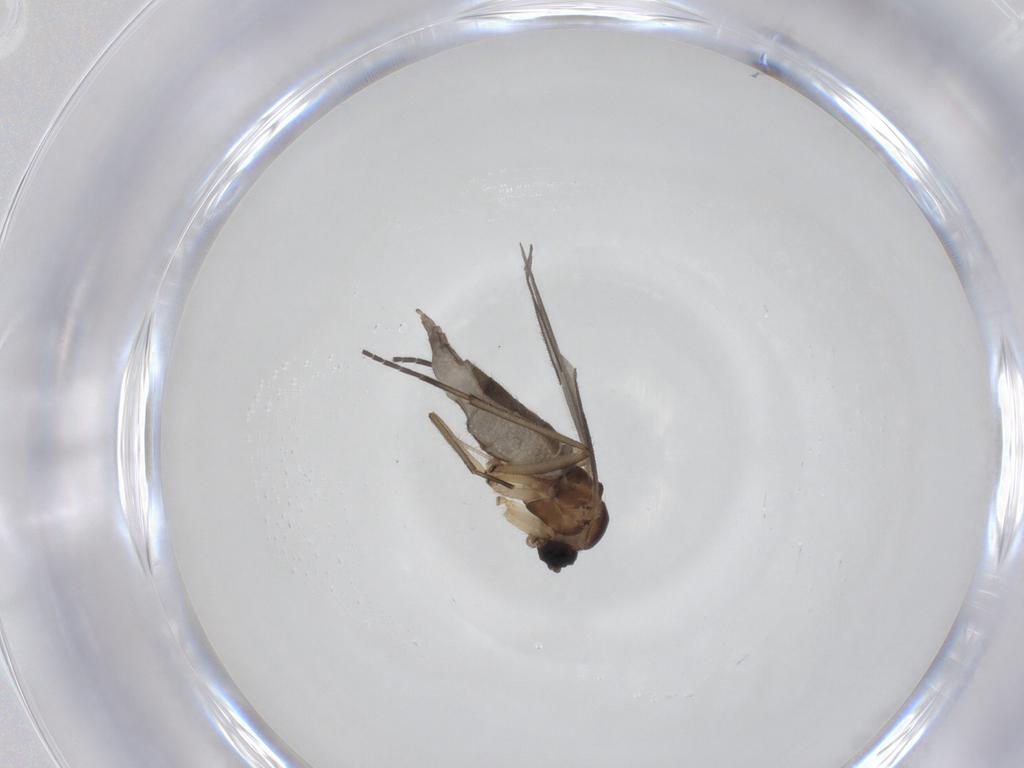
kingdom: Animalia
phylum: Arthropoda
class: Insecta
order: Diptera
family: Sciaridae
